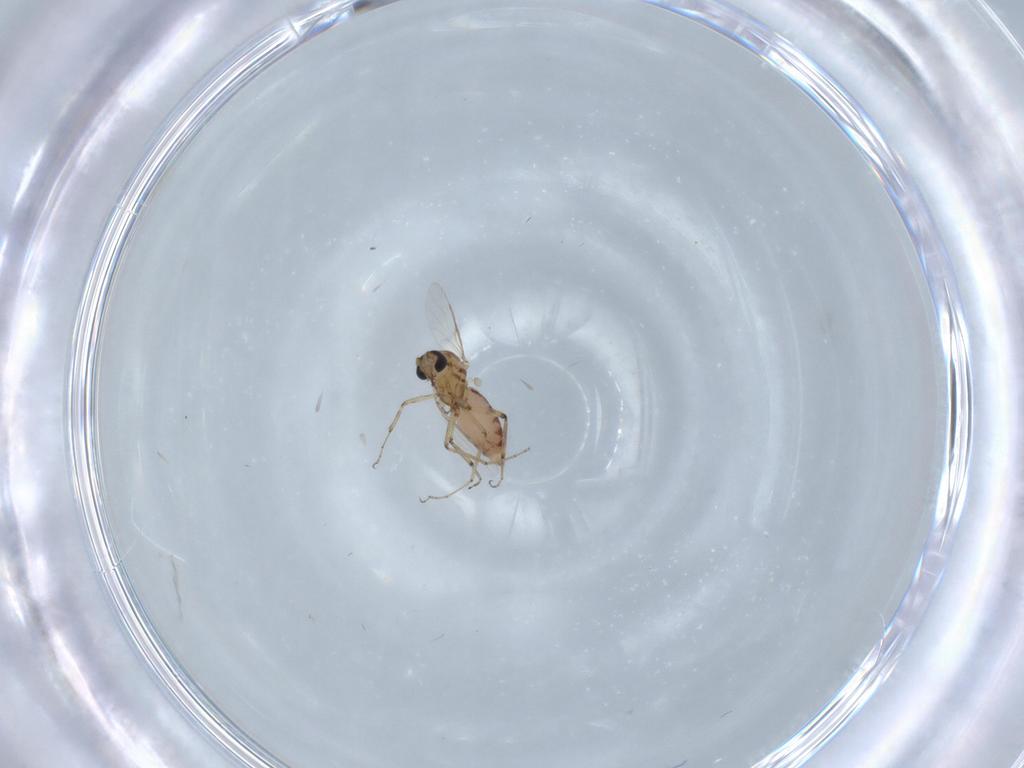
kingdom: Animalia
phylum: Arthropoda
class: Insecta
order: Diptera
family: Ceratopogonidae
